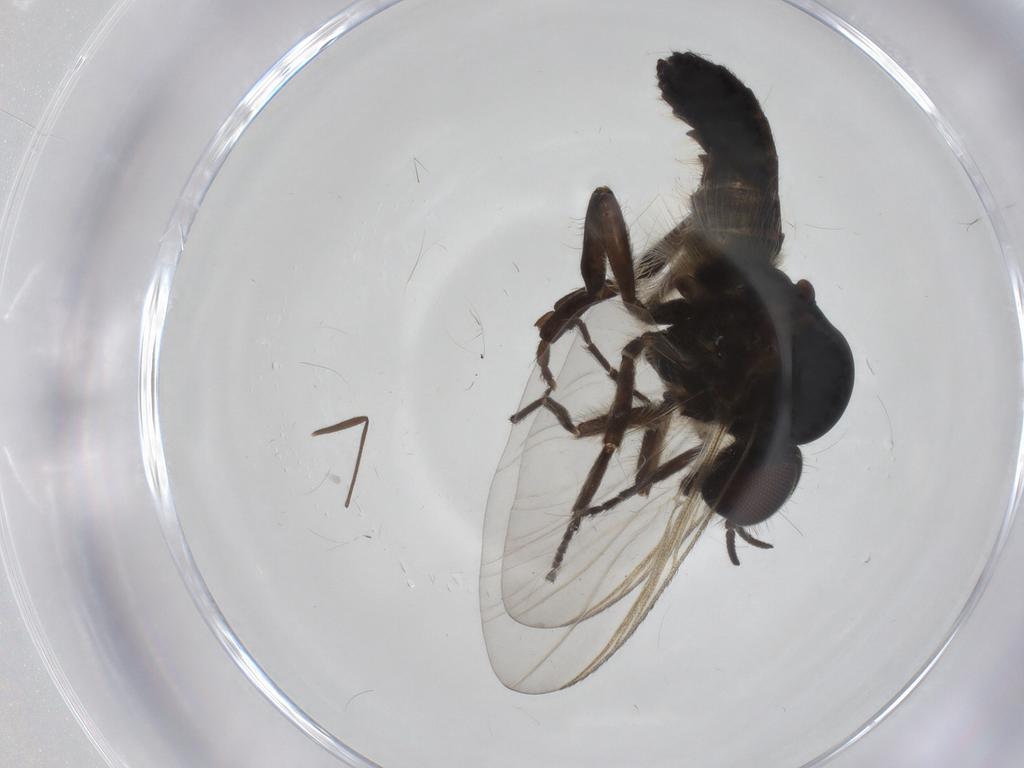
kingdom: Animalia
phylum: Arthropoda
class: Insecta
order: Diptera
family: Chironomidae
